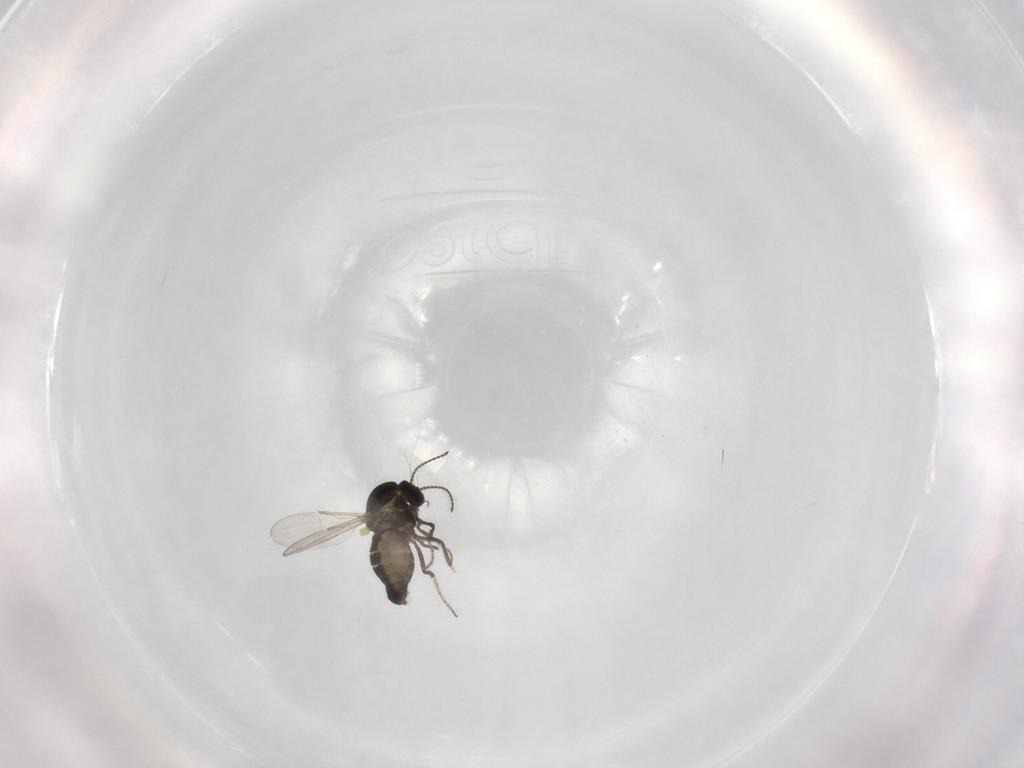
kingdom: Animalia
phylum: Arthropoda
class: Insecta
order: Diptera
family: Ceratopogonidae
